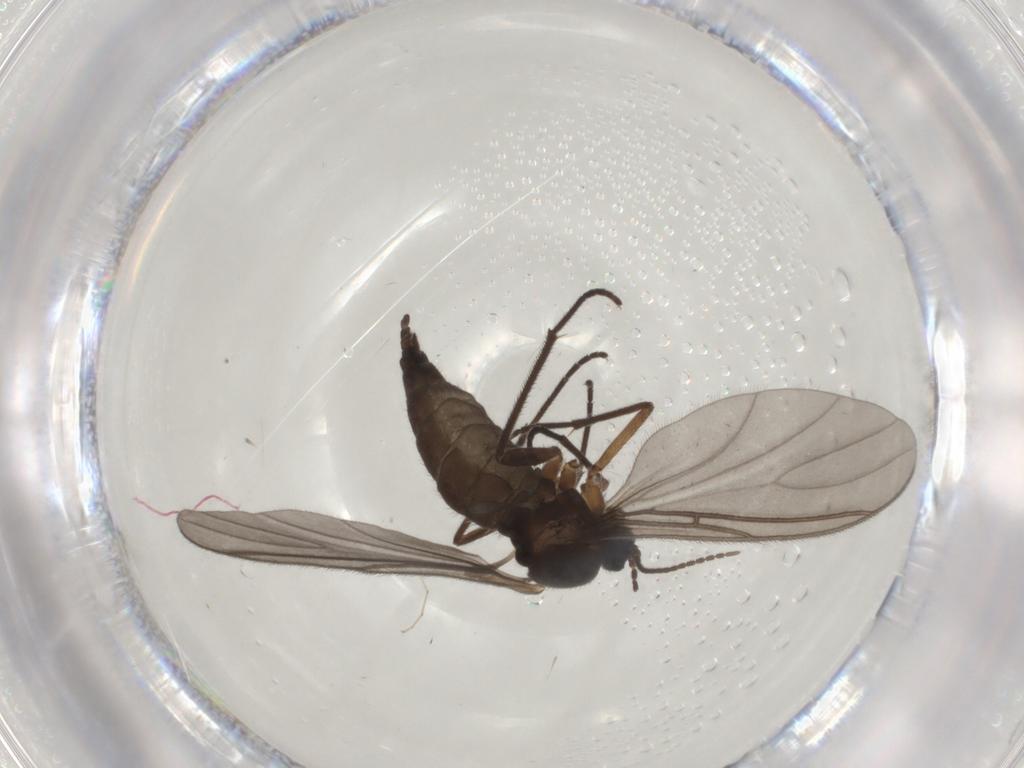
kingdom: Animalia
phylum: Arthropoda
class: Insecta
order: Diptera
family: Sciaridae
